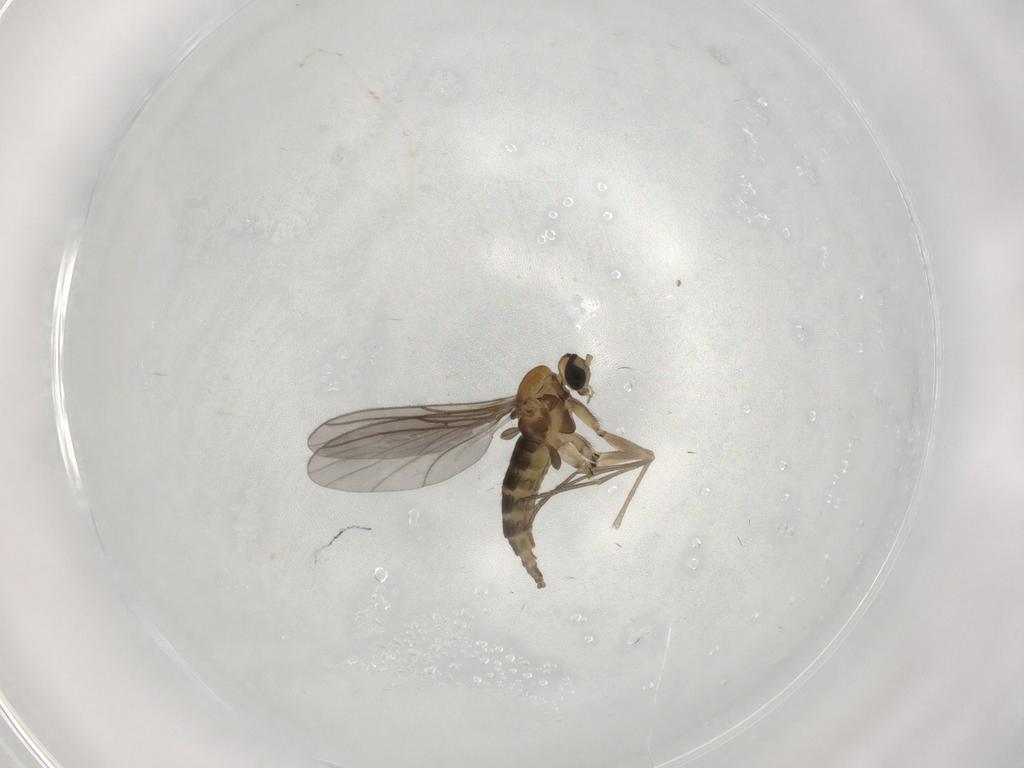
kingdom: Animalia
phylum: Arthropoda
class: Insecta
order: Diptera
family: Sciaridae
